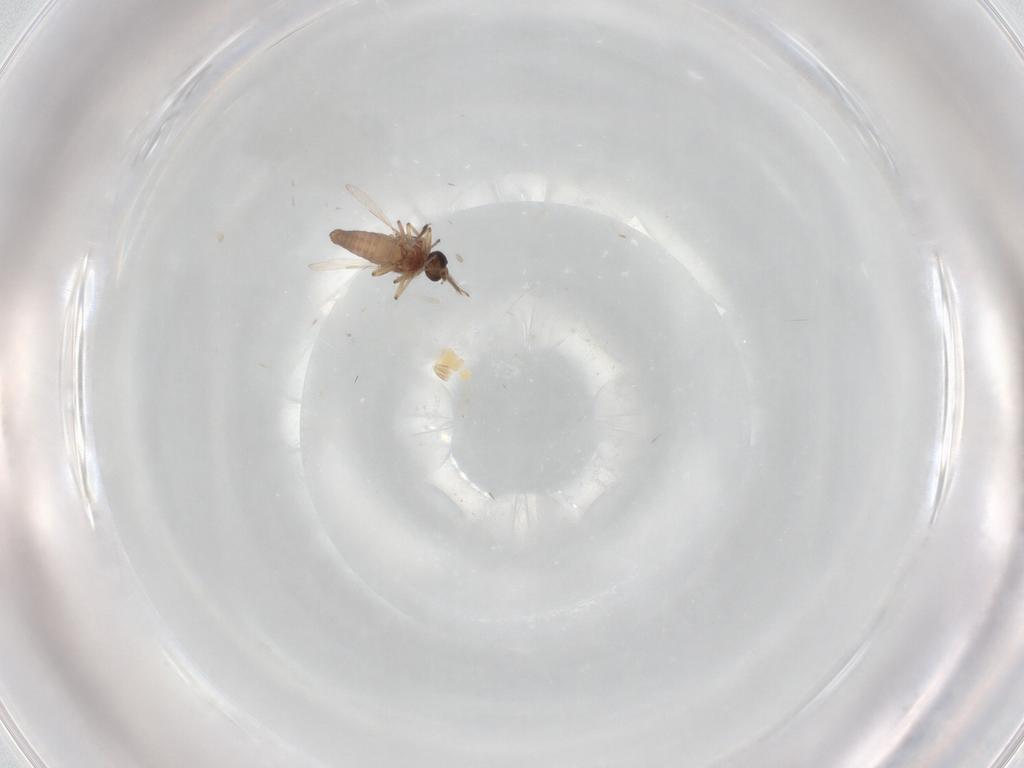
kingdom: Animalia
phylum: Arthropoda
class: Insecta
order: Diptera
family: Ceratopogonidae
